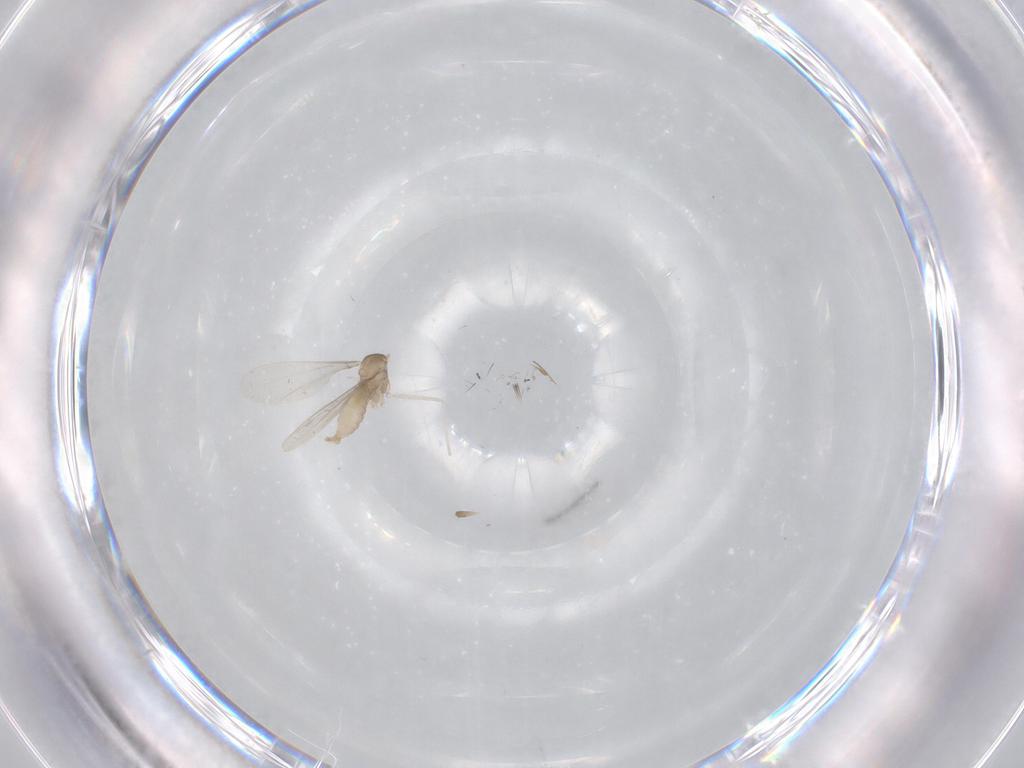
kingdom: Animalia
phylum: Arthropoda
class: Insecta
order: Diptera
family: Cecidomyiidae
